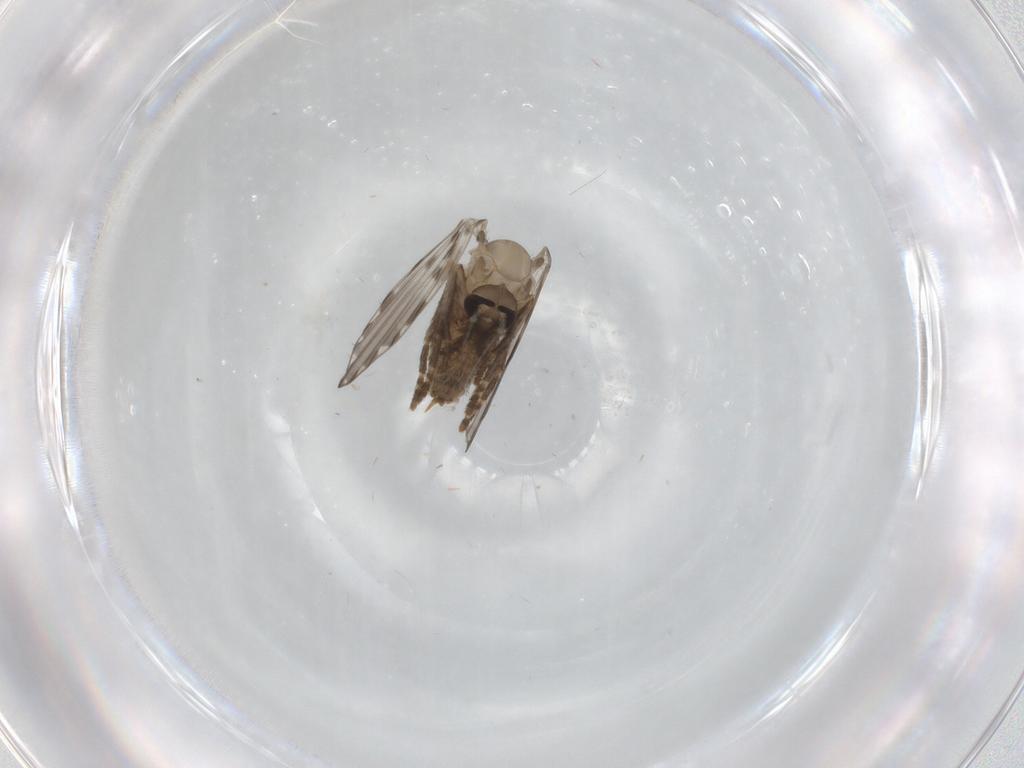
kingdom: Animalia
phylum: Arthropoda
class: Insecta
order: Diptera
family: Psychodidae
